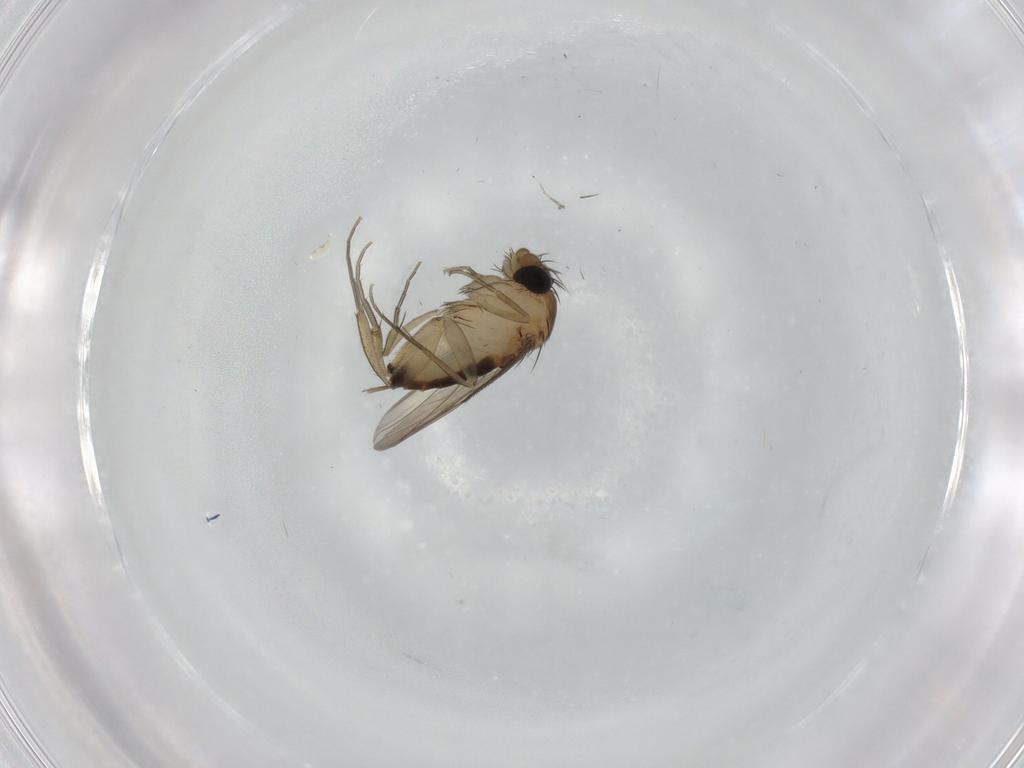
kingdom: Animalia
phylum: Arthropoda
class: Insecta
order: Diptera
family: Phoridae
